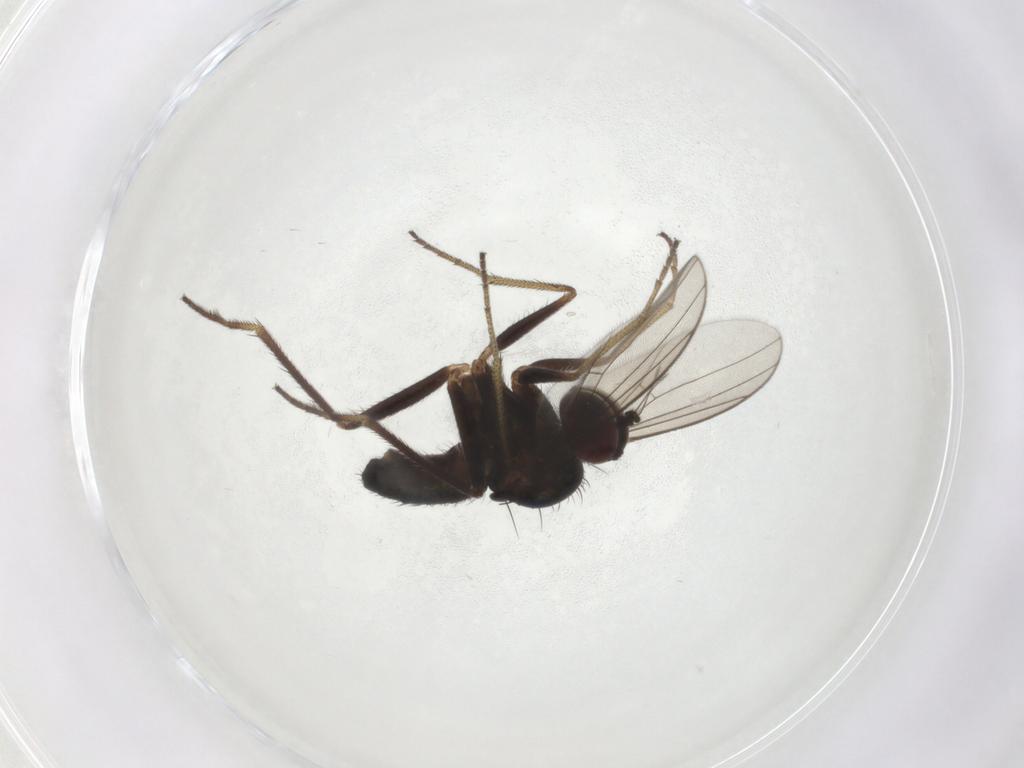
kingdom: Animalia
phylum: Arthropoda
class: Insecta
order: Diptera
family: Dolichopodidae
